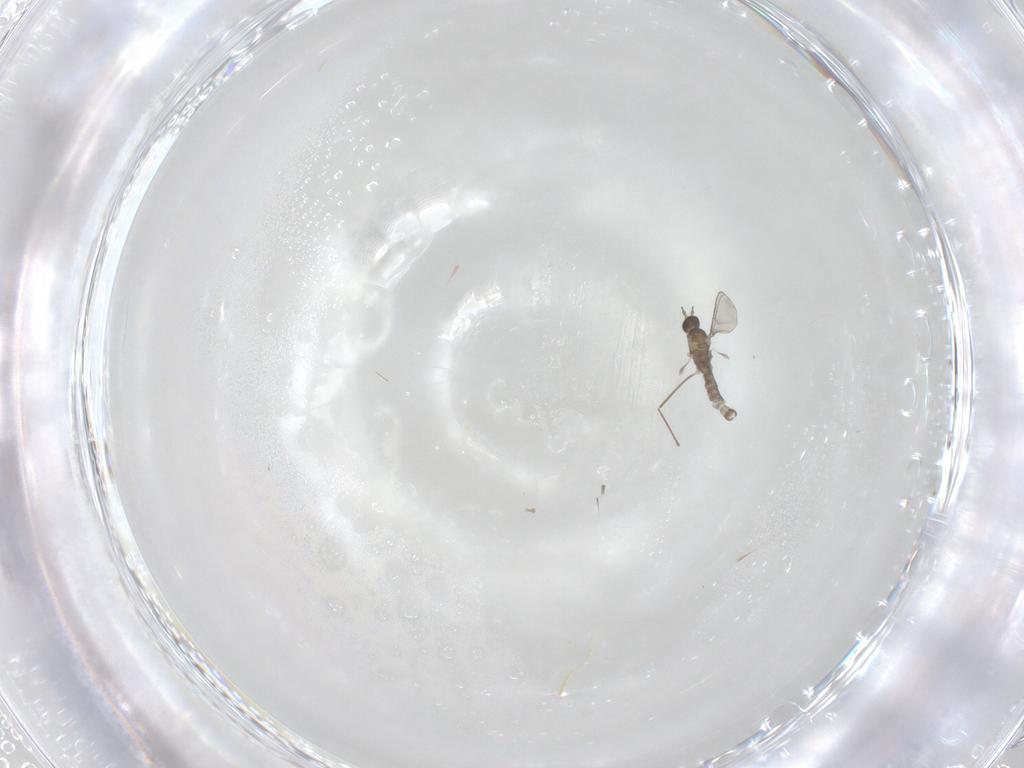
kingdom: Animalia
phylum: Arthropoda
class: Insecta
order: Diptera
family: Cecidomyiidae
